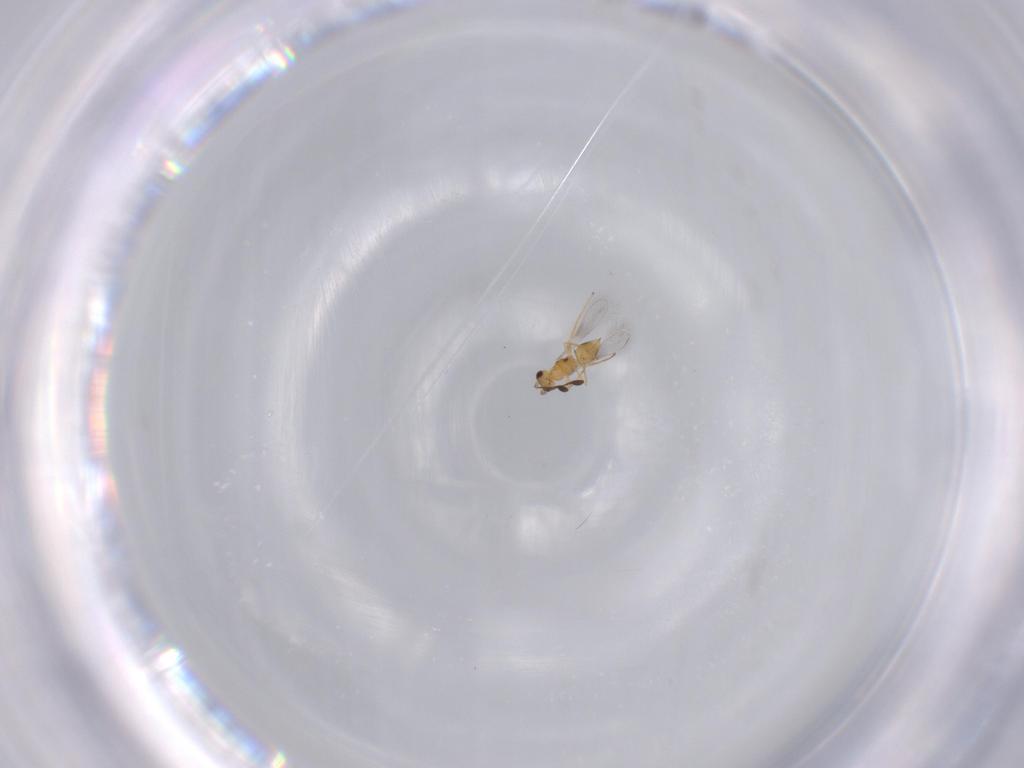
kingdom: Animalia
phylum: Arthropoda
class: Insecta
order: Hymenoptera
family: Mymaridae
